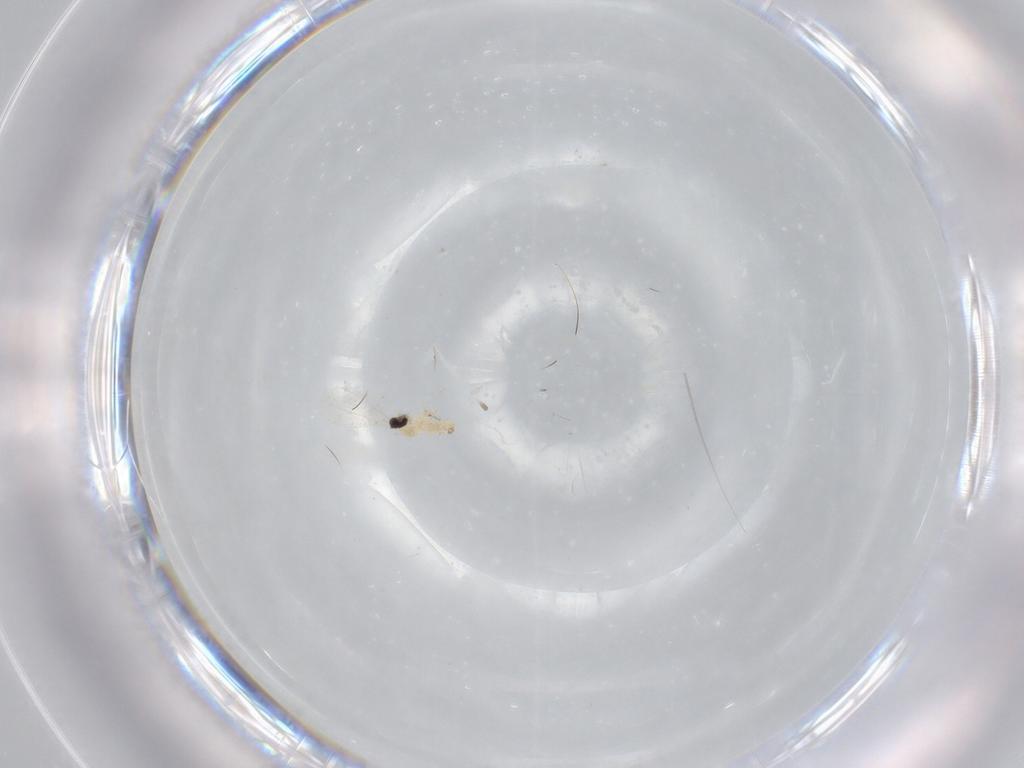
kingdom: Animalia
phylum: Arthropoda
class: Insecta
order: Diptera
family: Cecidomyiidae
